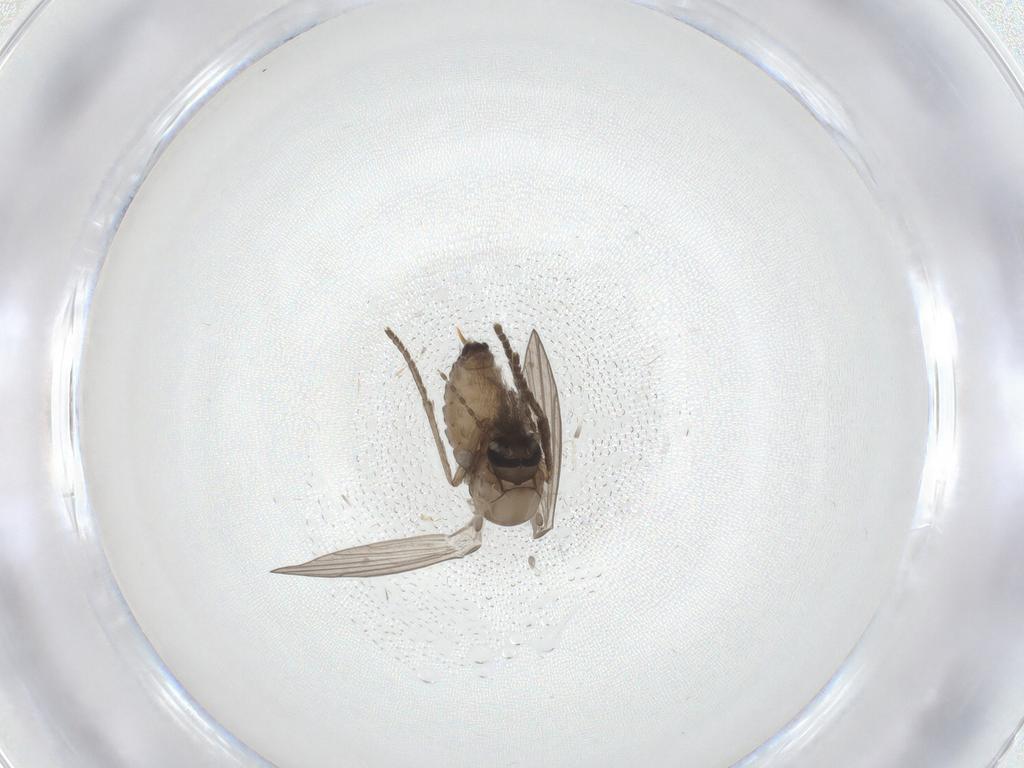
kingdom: Animalia
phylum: Arthropoda
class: Insecta
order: Diptera
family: Psychodidae
